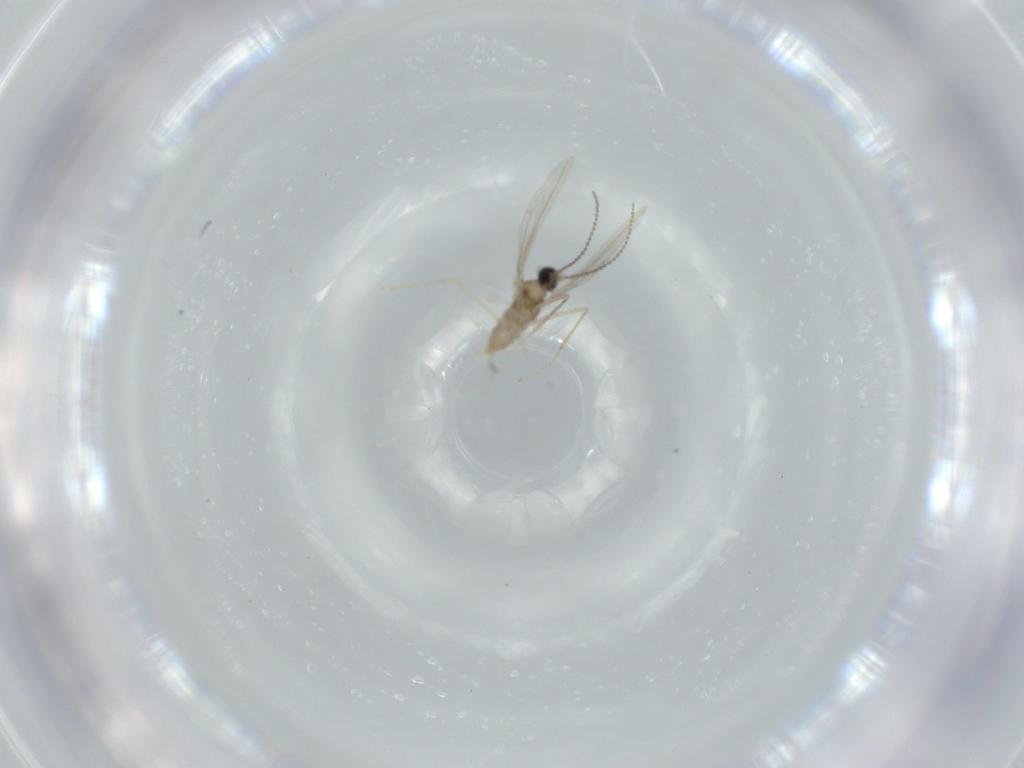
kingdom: Animalia
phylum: Arthropoda
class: Insecta
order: Diptera
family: Cecidomyiidae
